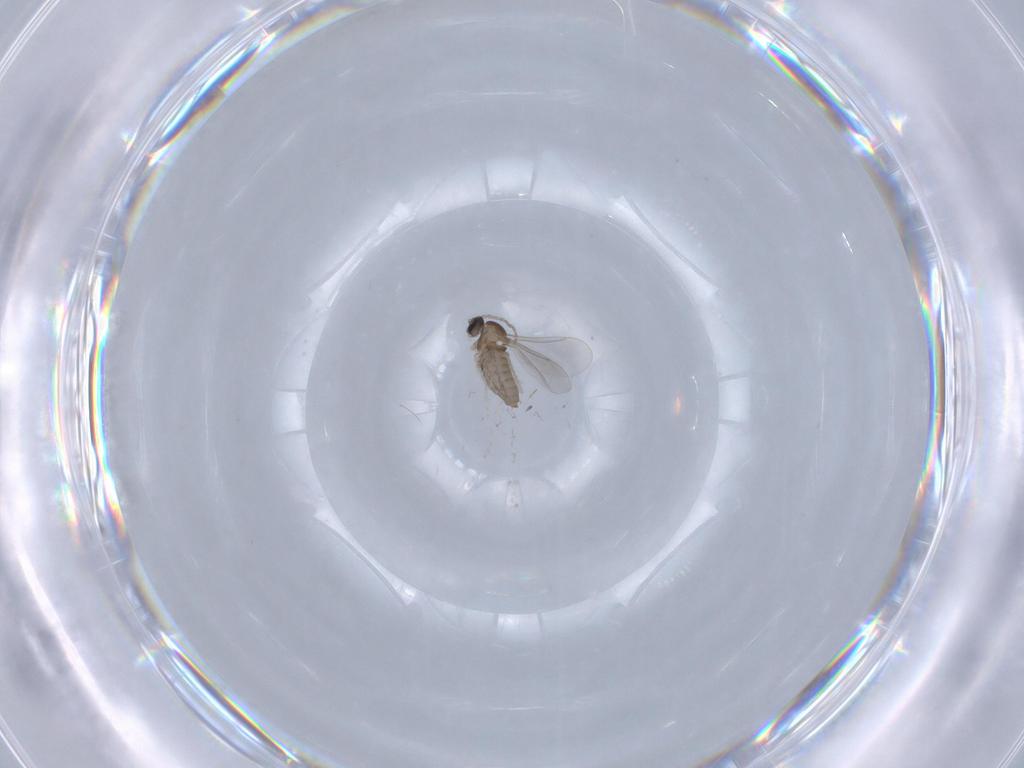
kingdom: Animalia
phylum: Arthropoda
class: Insecta
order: Diptera
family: Cecidomyiidae
